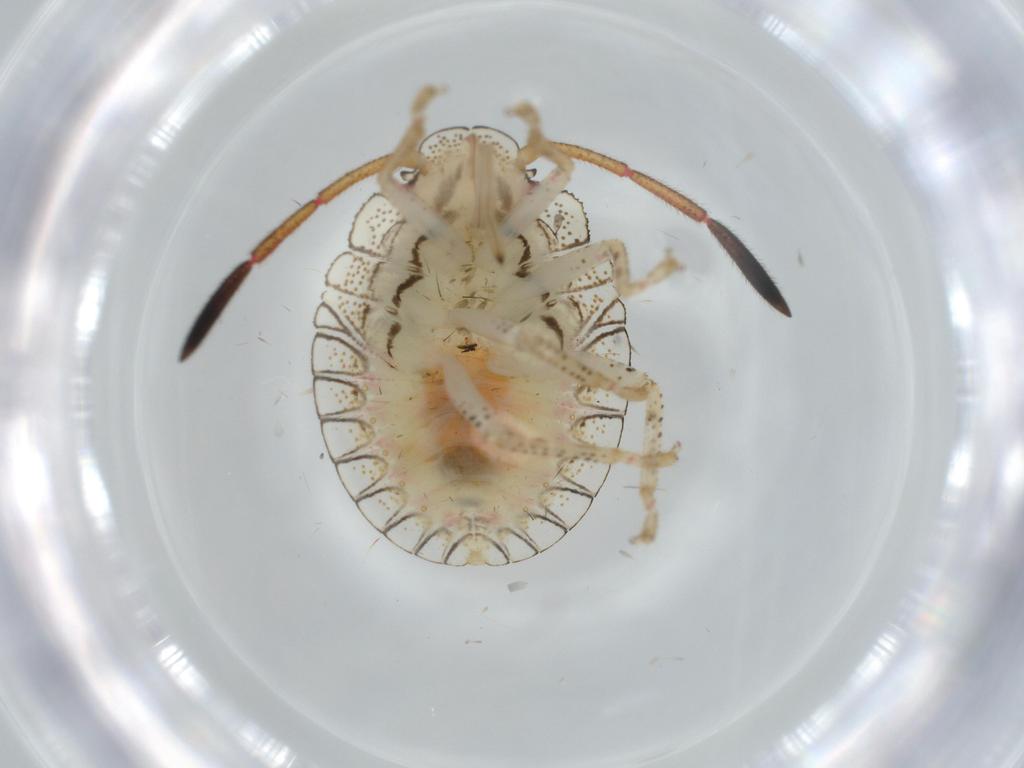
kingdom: Animalia
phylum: Arthropoda
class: Insecta
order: Hemiptera
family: Pentatomidae
